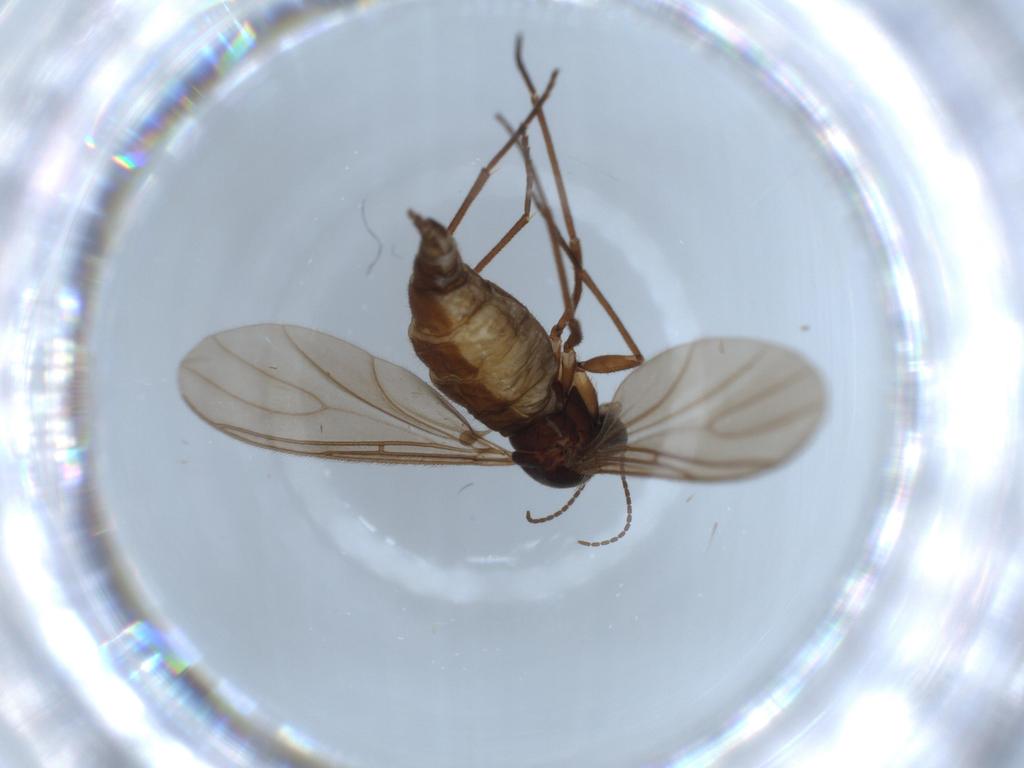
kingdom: Animalia
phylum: Arthropoda
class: Insecta
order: Diptera
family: Sciaridae
